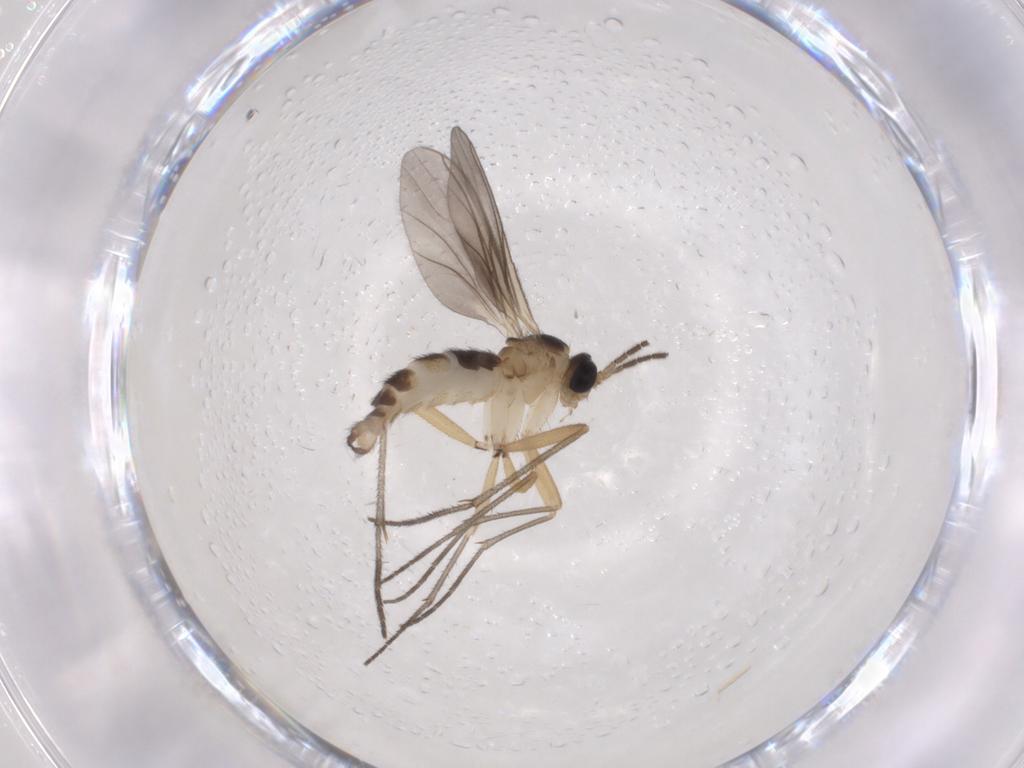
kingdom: Animalia
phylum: Arthropoda
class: Insecta
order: Diptera
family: Sciaridae
